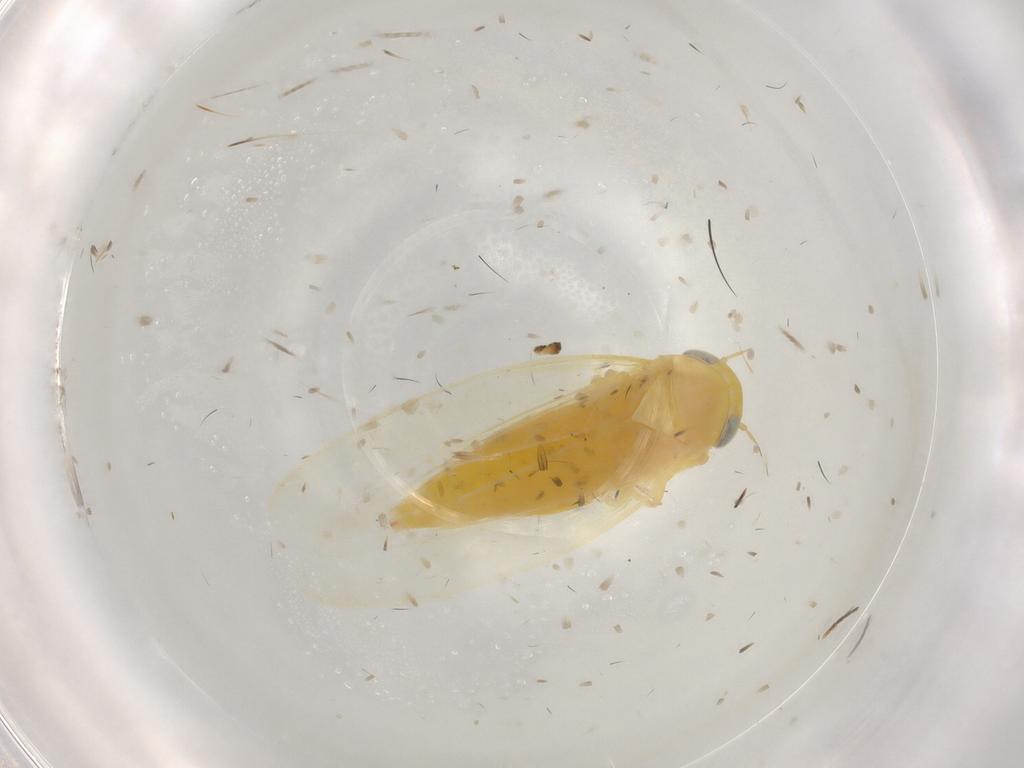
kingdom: Animalia
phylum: Arthropoda
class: Insecta
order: Hemiptera
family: Cicadellidae
